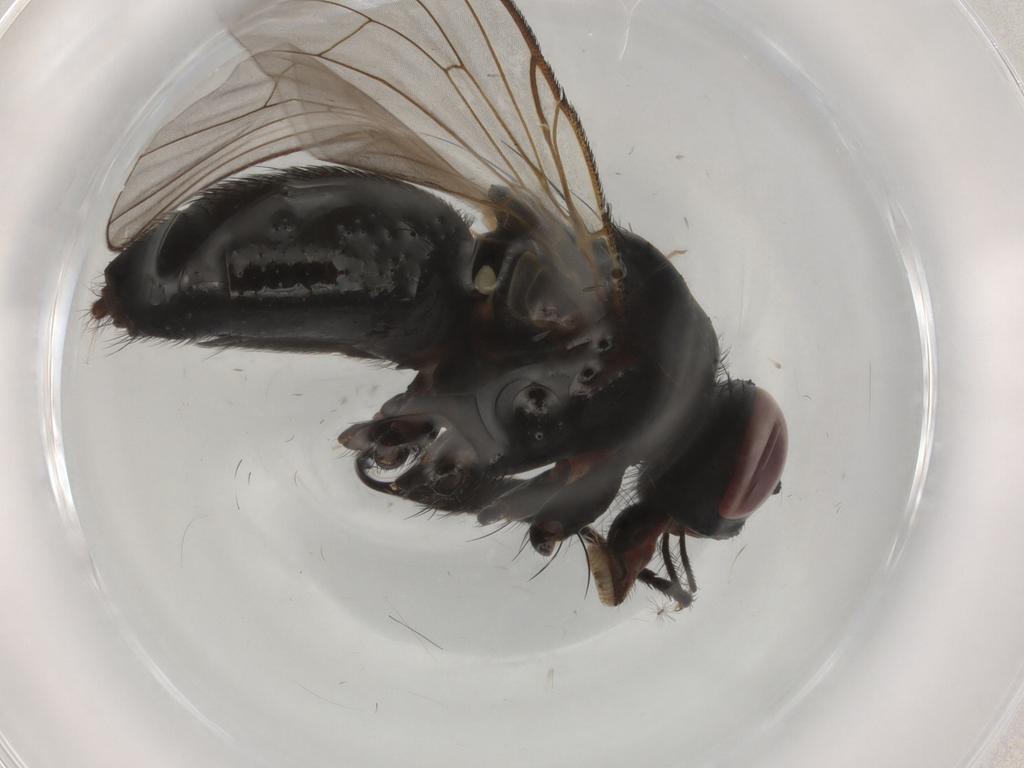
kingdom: Animalia
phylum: Arthropoda
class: Insecta
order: Diptera
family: Muscidae
